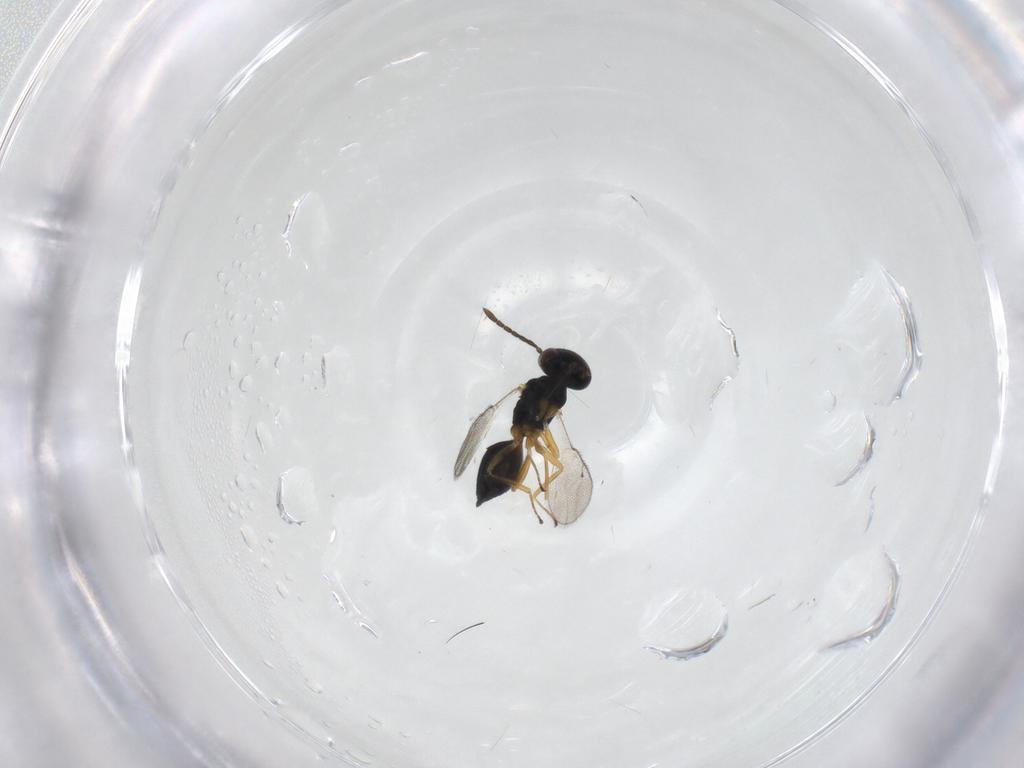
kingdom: Animalia
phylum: Arthropoda
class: Insecta
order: Hymenoptera
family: Pteromalidae
